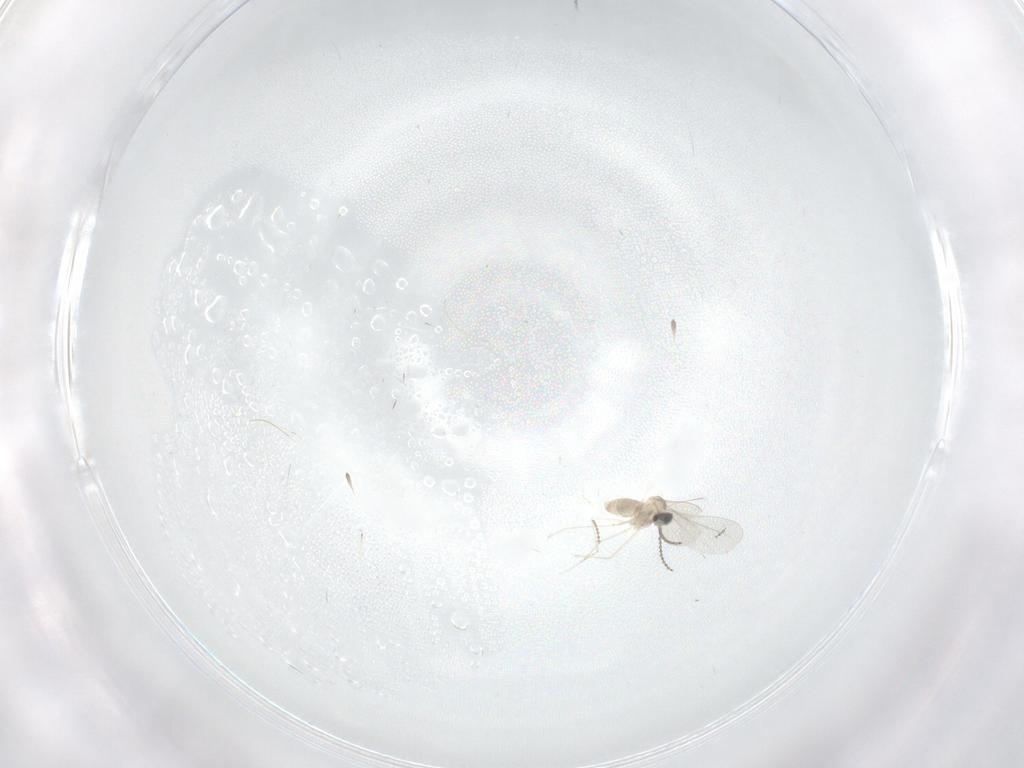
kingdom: Animalia
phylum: Arthropoda
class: Insecta
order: Diptera
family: Cecidomyiidae
